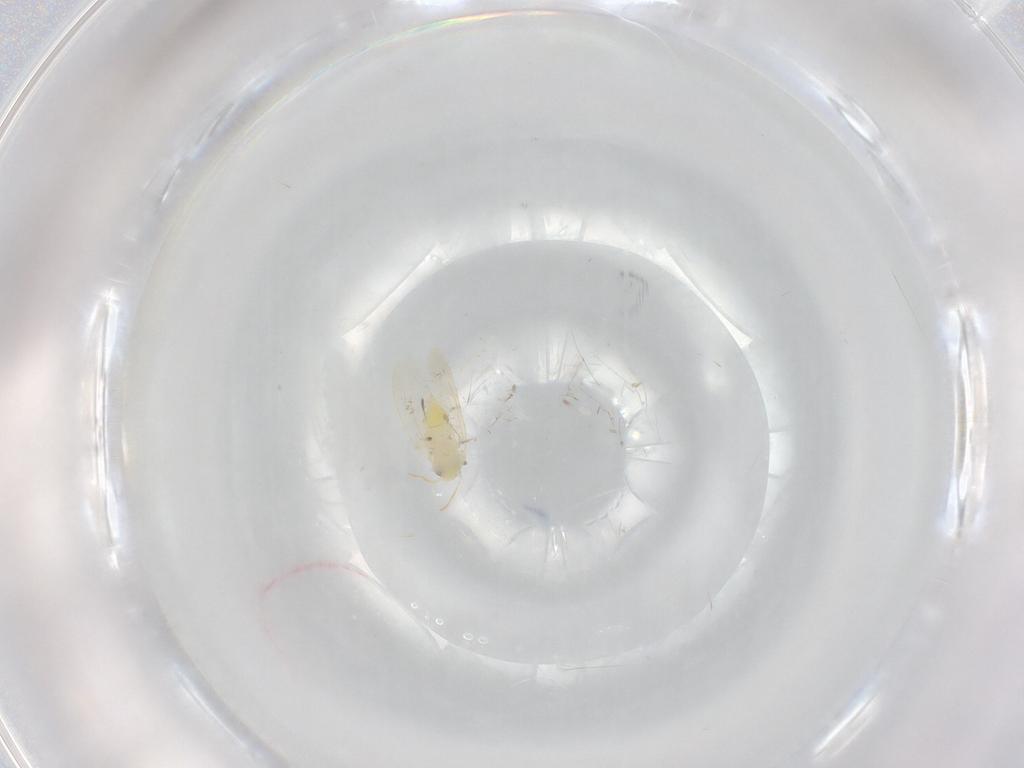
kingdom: Animalia
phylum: Arthropoda
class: Insecta
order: Hemiptera
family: Aleyrodidae
